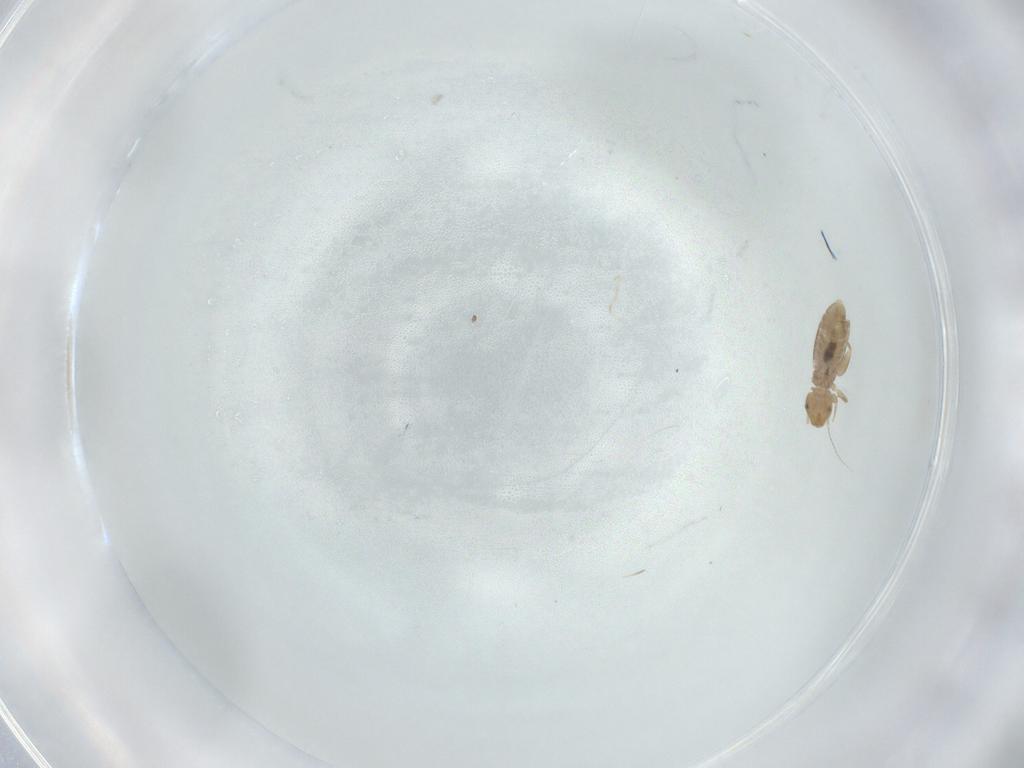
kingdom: Animalia
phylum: Arthropoda
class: Insecta
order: Psocodea
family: Liposcelididae
